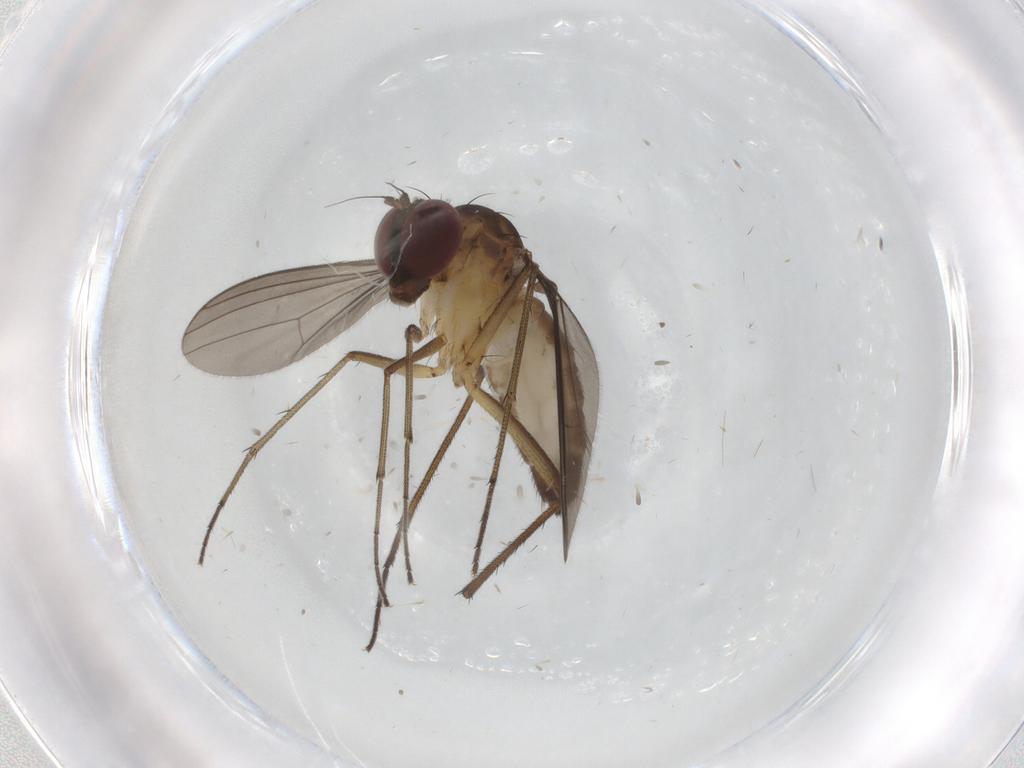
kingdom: Animalia
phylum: Arthropoda
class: Insecta
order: Diptera
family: Dolichopodidae
